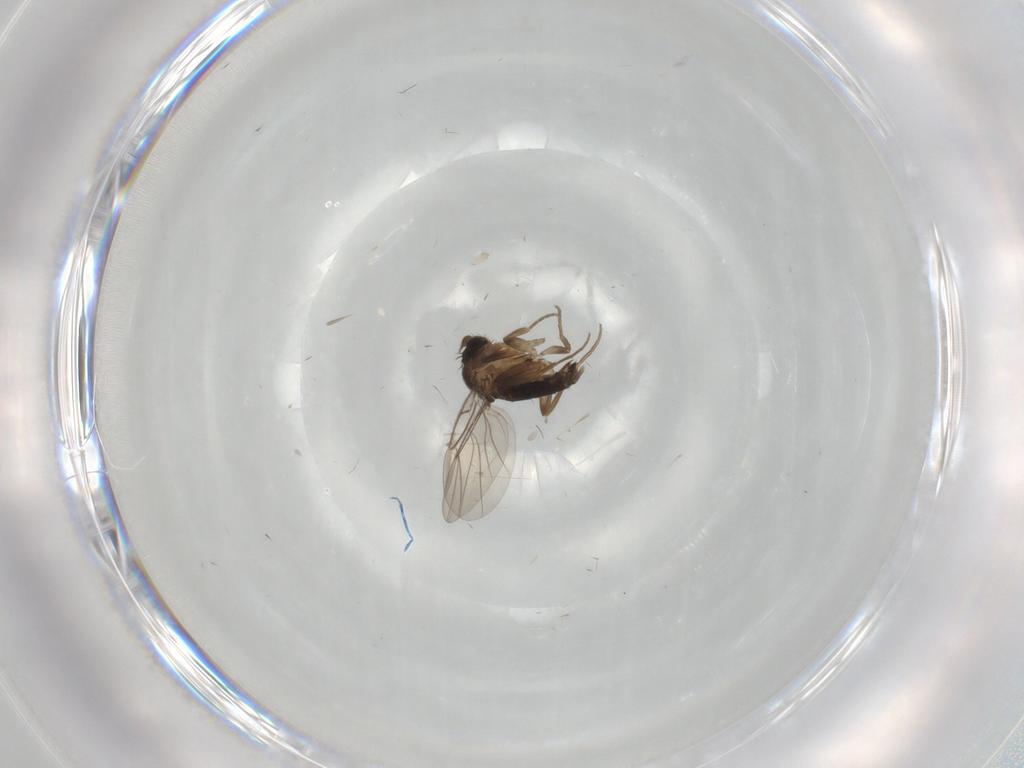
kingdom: Animalia
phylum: Arthropoda
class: Insecta
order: Diptera
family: Phoridae
